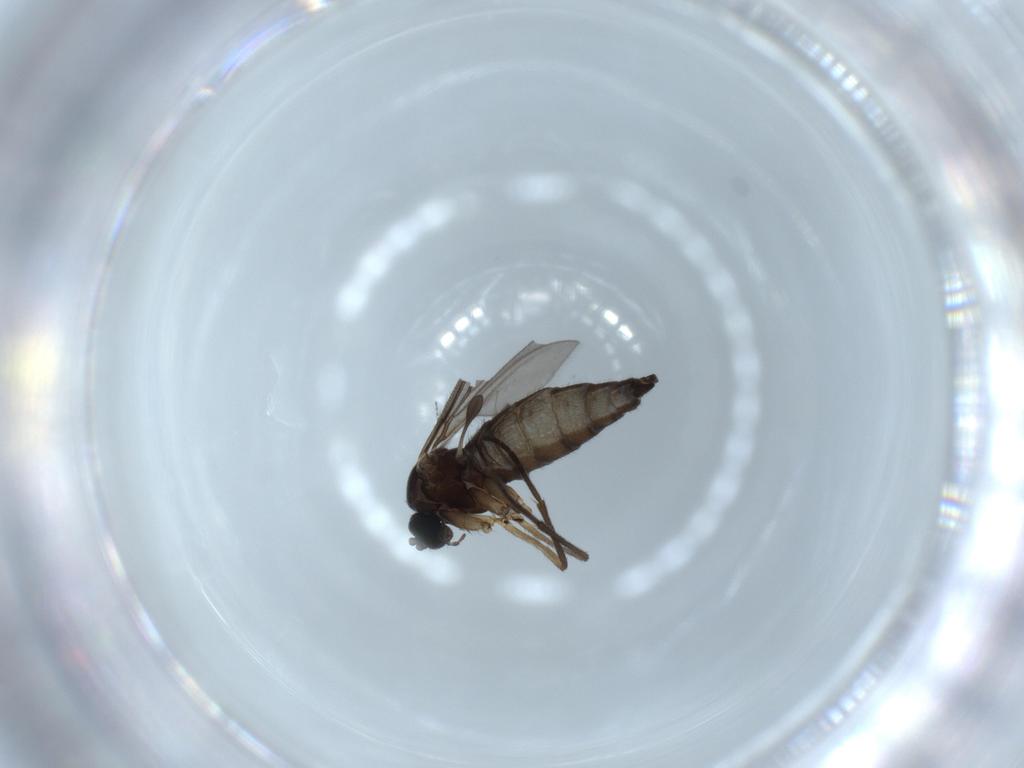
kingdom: Animalia
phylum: Arthropoda
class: Insecta
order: Diptera
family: Sciaridae
